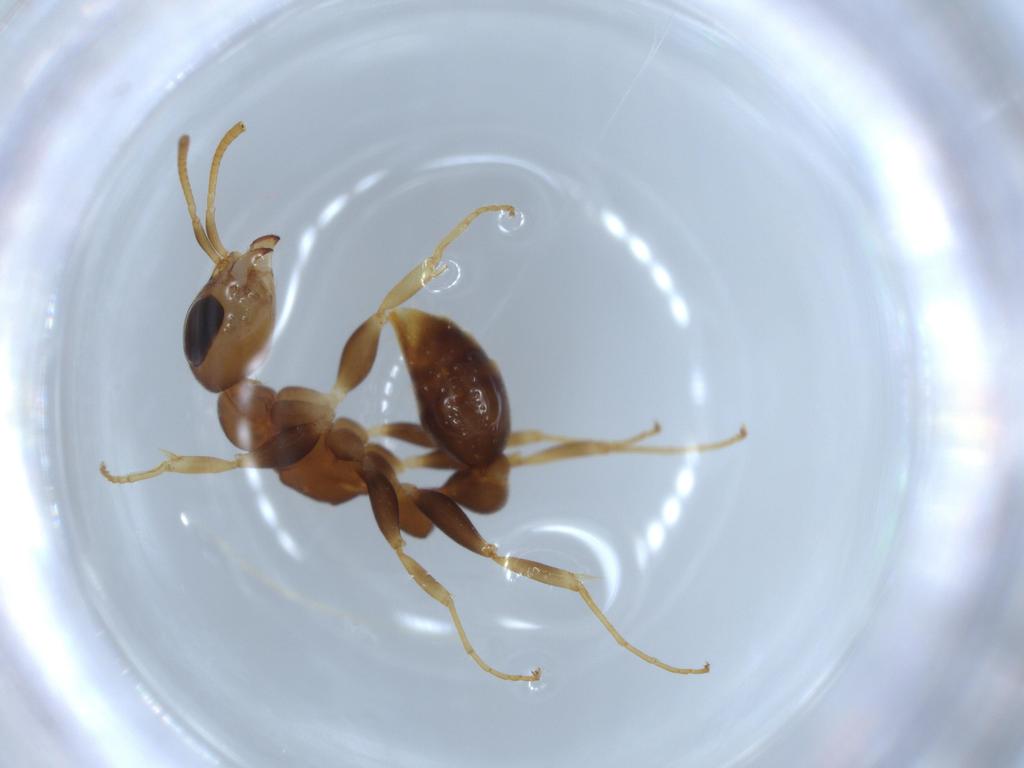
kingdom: Animalia
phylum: Arthropoda
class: Insecta
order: Hymenoptera
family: Formicidae
